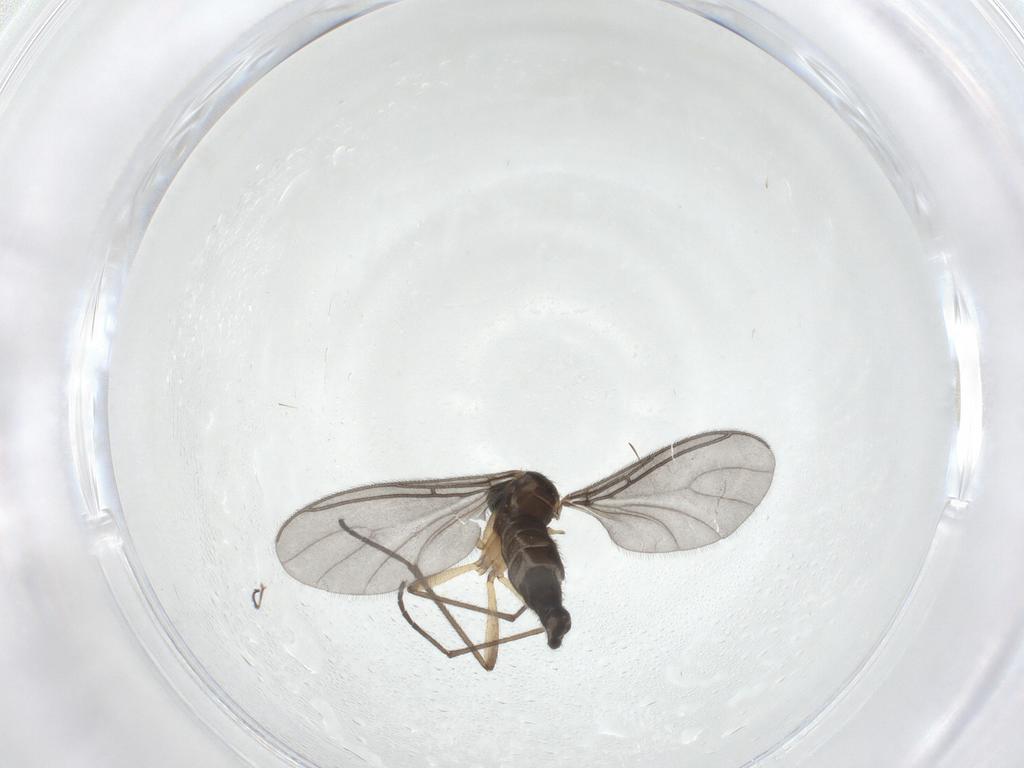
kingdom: Animalia
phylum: Arthropoda
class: Insecta
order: Diptera
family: Sciaridae
